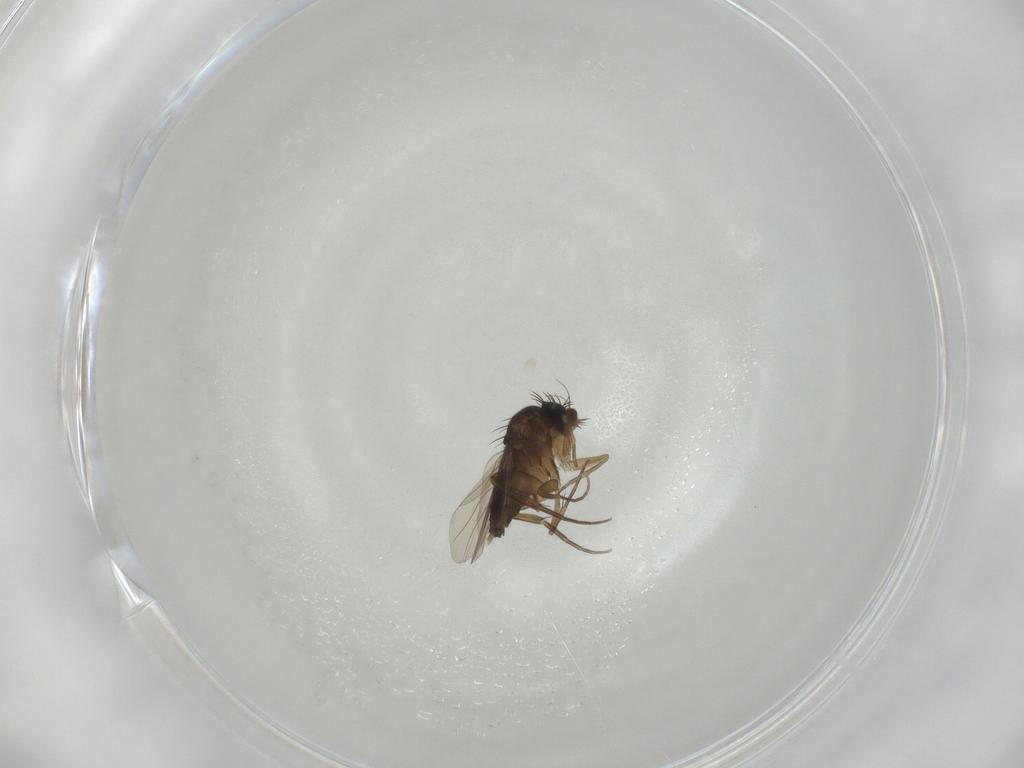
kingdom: Animalia
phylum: Arthropoda
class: Insecta
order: Diptera
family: Phoridae
